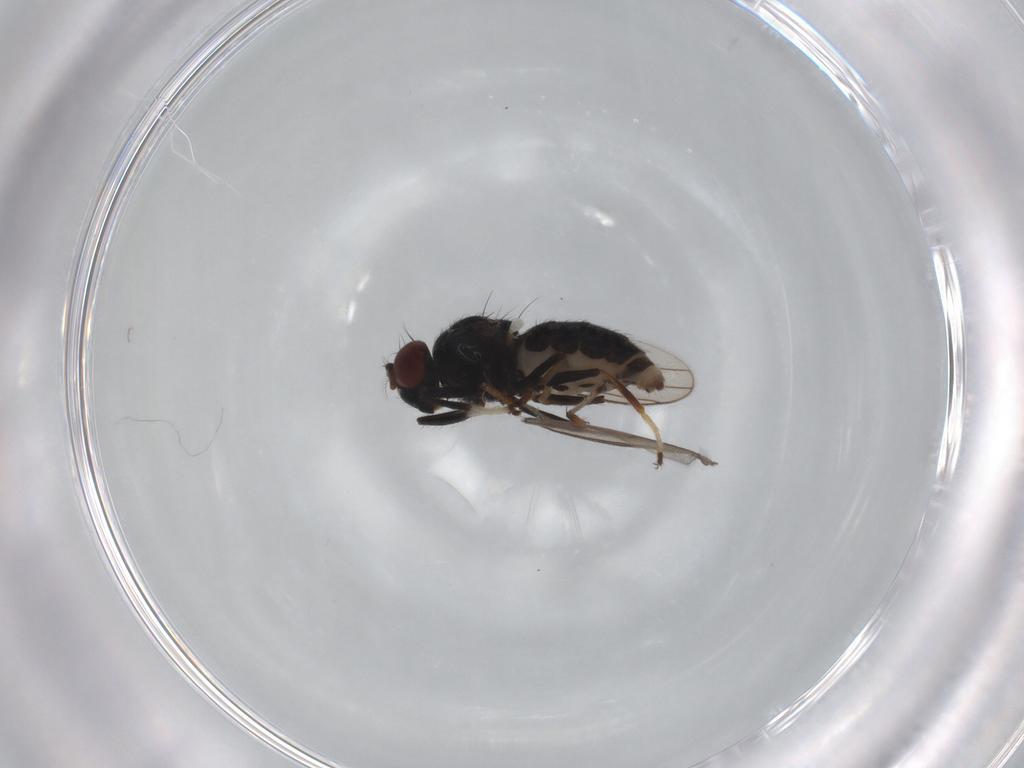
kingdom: Animalia
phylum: Arthropoda
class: Insecta
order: Diptera
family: Ephydridae
